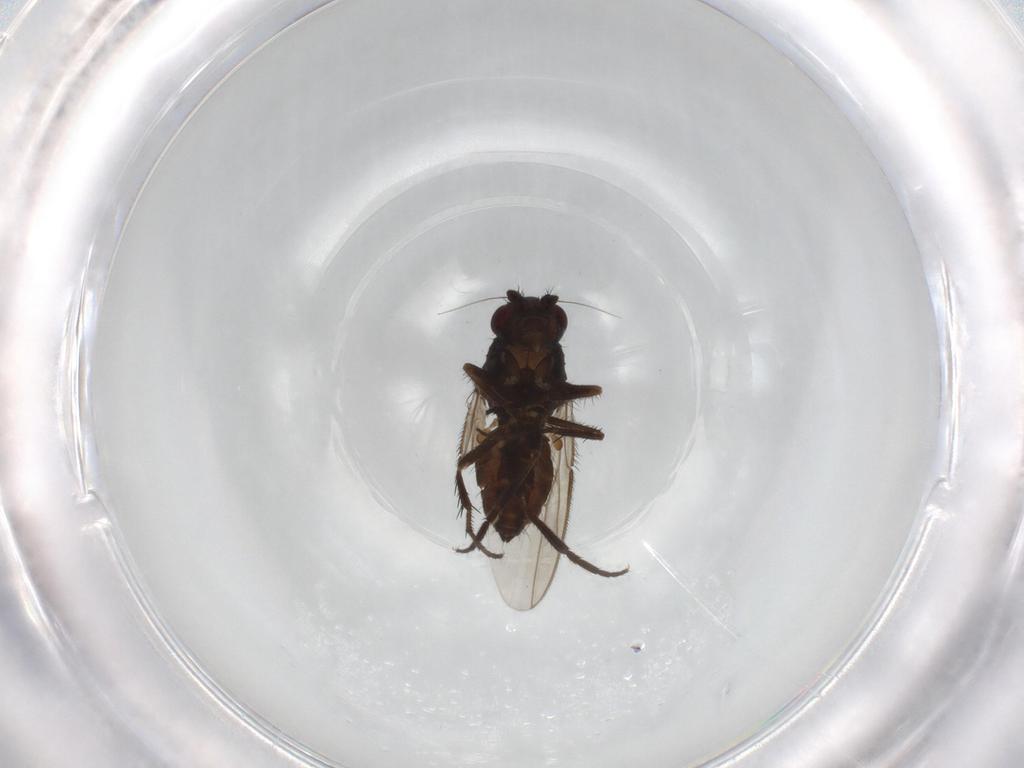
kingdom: Animalia
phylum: Arthropoda
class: Insecta
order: Diptera
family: Sphaeroceridae
